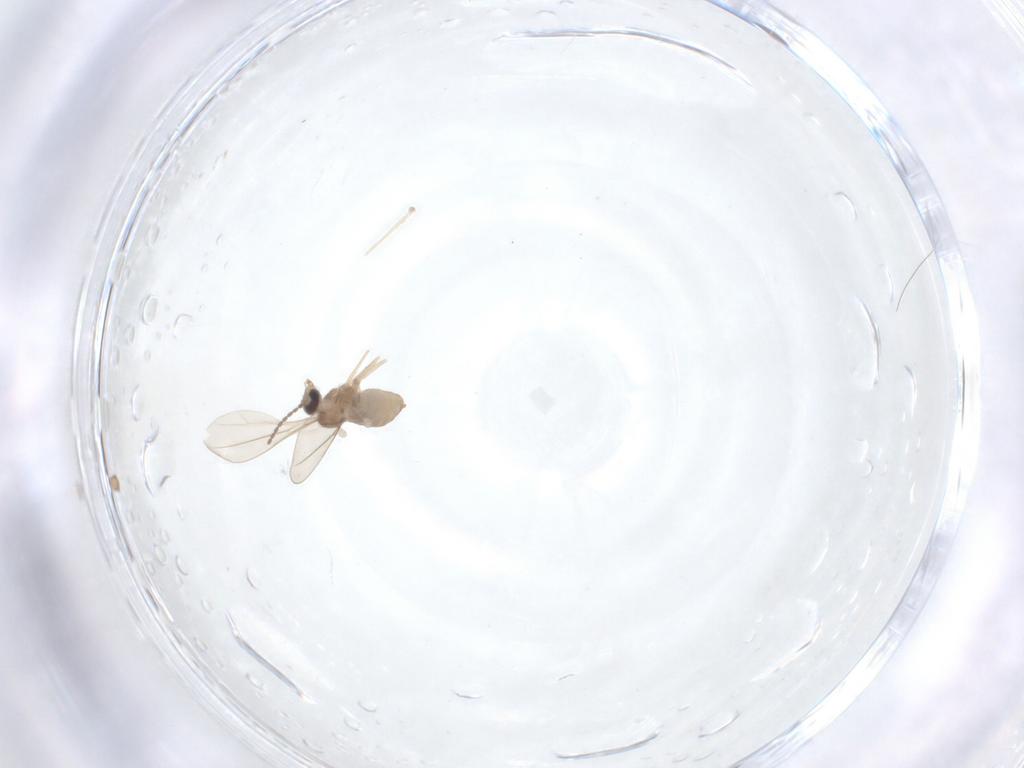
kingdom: Animalia
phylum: Arthropoda
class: Insecta
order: Diptera
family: Cecidomyiidae
